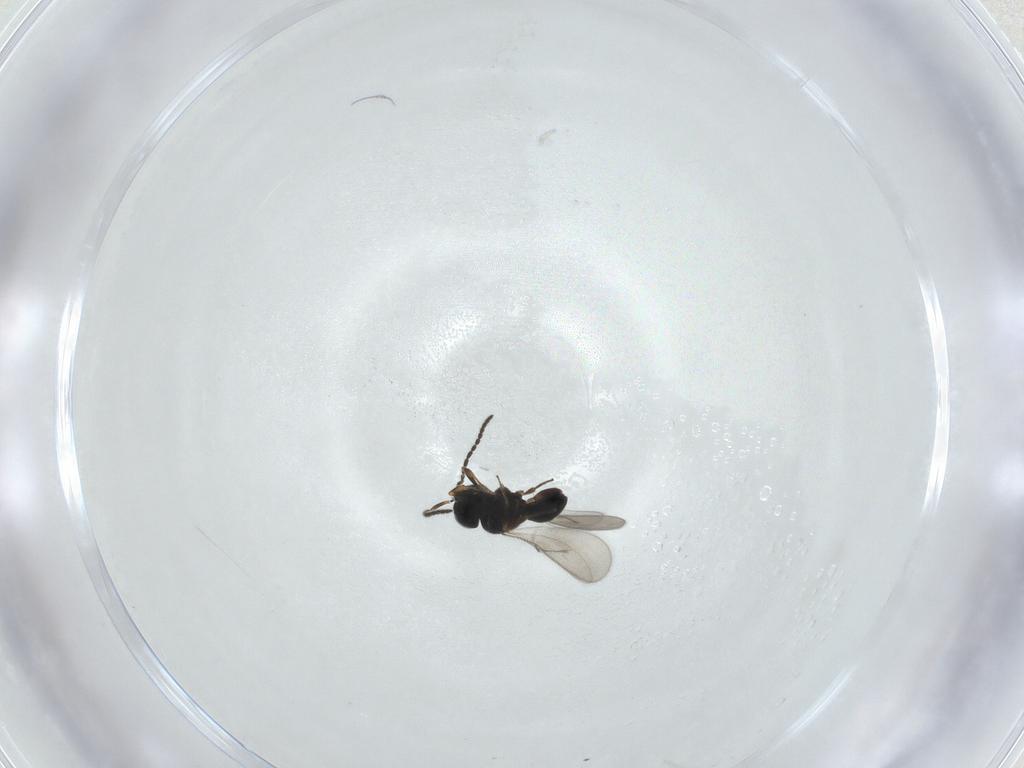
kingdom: Animalia
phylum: Arthropoda
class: Insecta
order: Hymenoptera
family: Scelionidae
